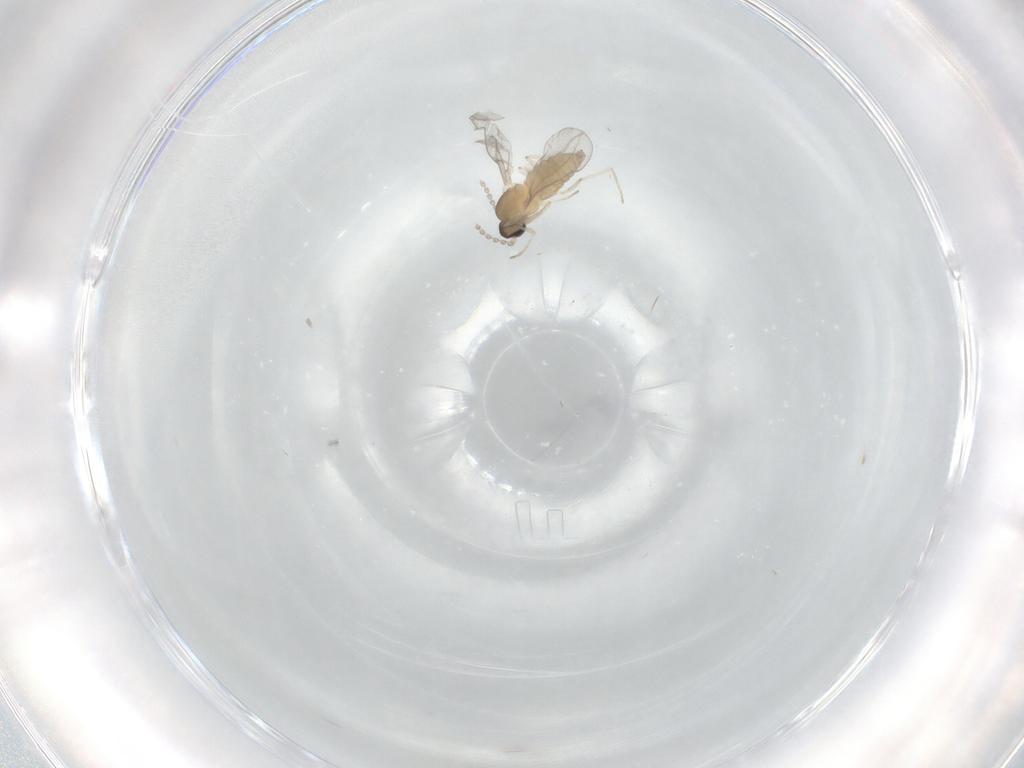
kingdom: Animalia
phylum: Arthropoda
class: Insecta
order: Diptera
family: Cecidomyiidae
